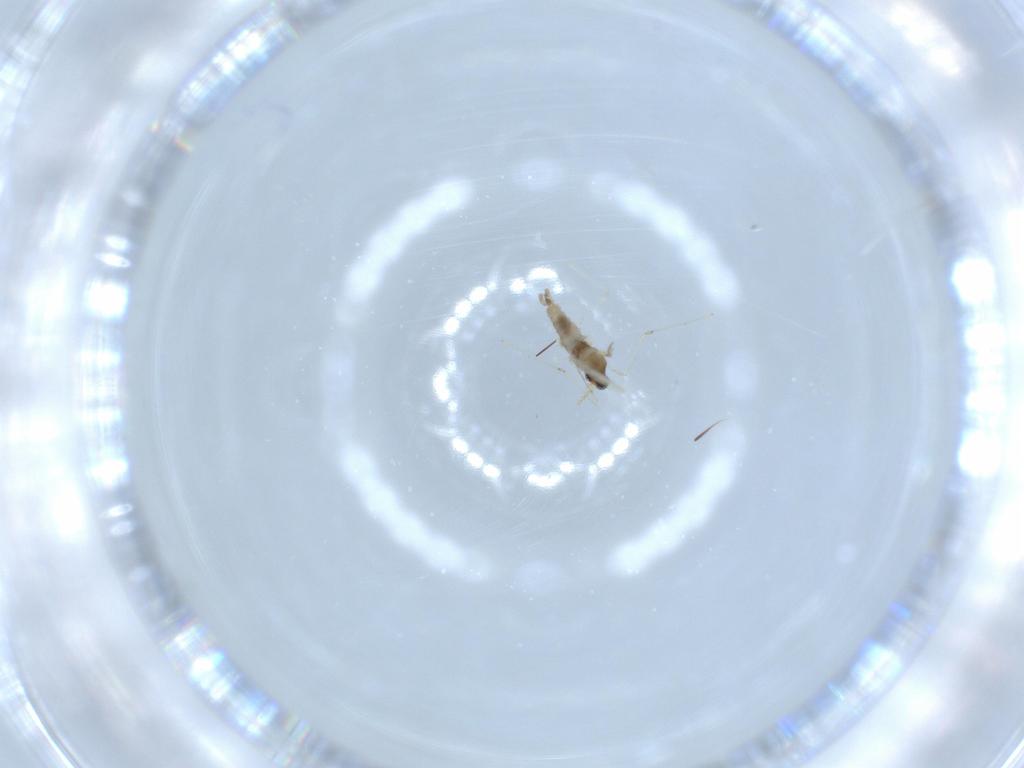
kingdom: Animalia
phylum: Arthropoda
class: Insecta
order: Diptera
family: Cecidomyiidae
